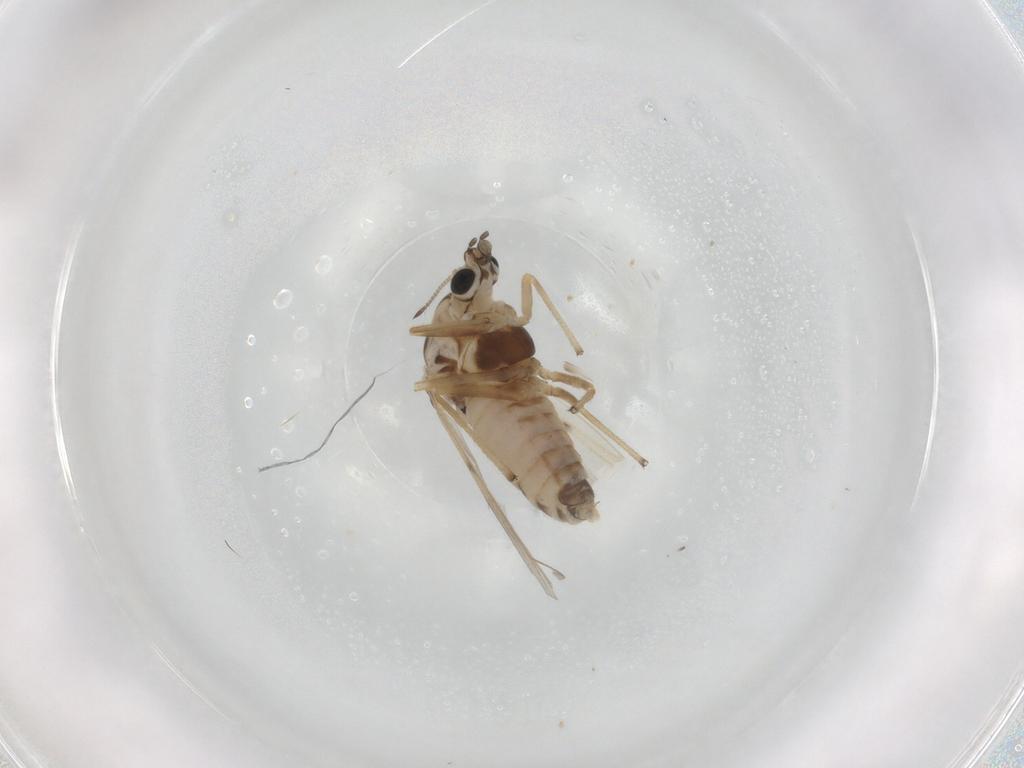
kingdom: Animalia
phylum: Arthropoda
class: Insecta
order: Diptera
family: Chironomidae
